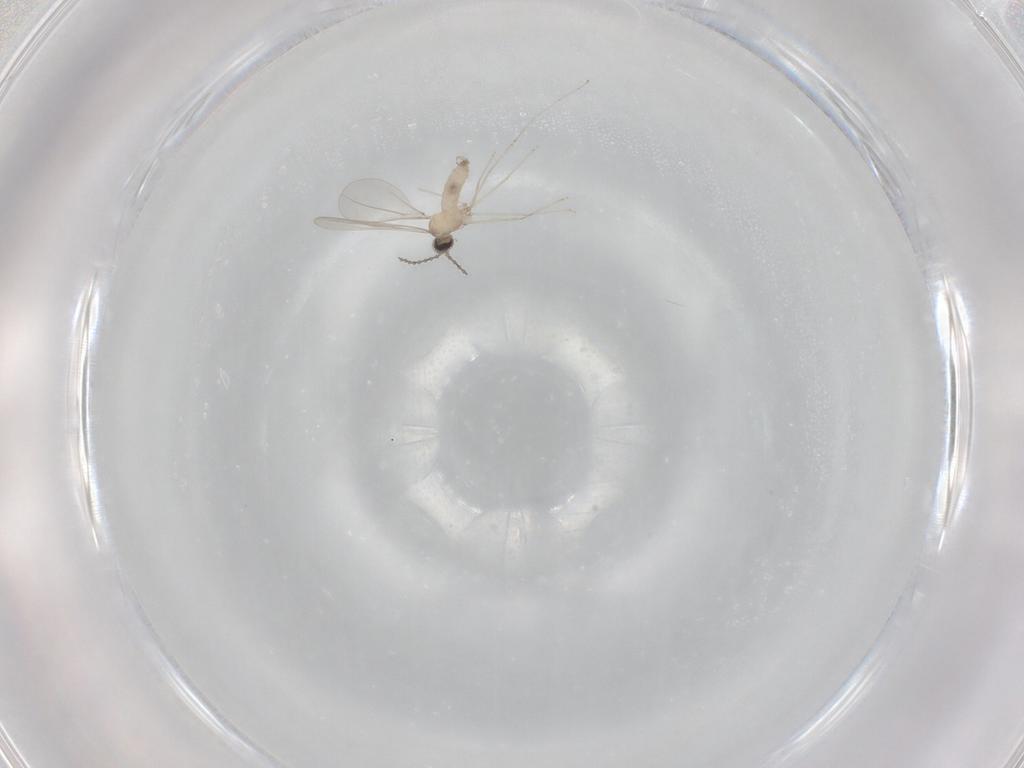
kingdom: Animalia
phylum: Arthropoda
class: Insecta
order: Diptera
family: Cecidomyiidae
